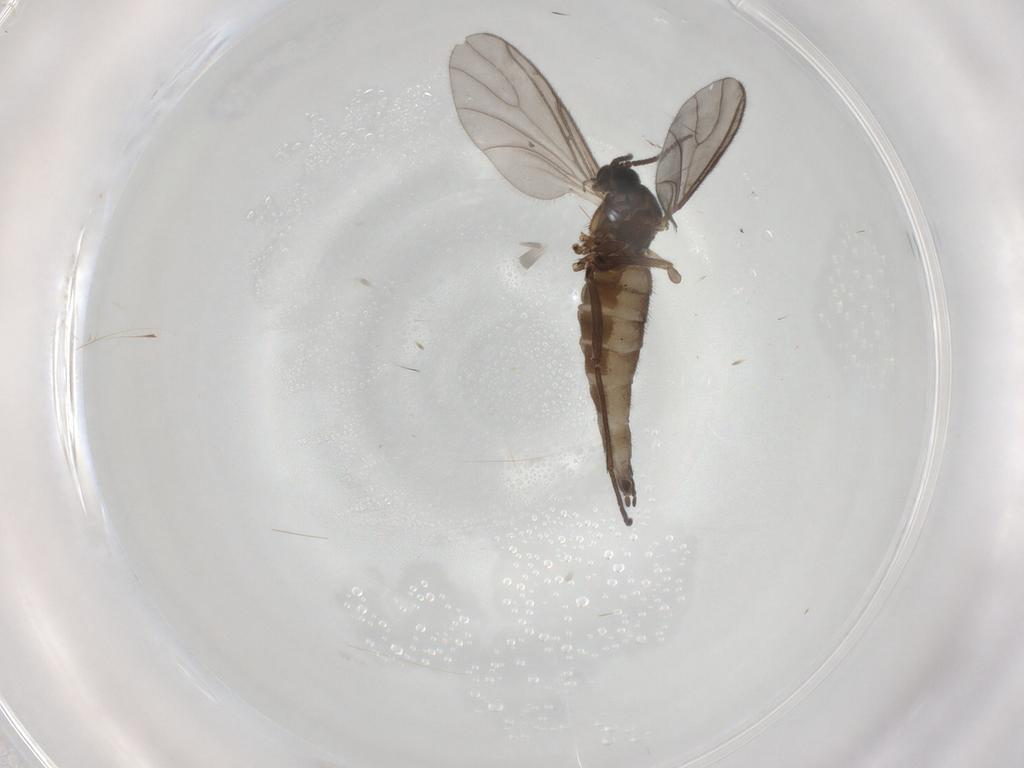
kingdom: Animalia
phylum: Arthropoda
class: Insecta
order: Diptera
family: Sciaridae
